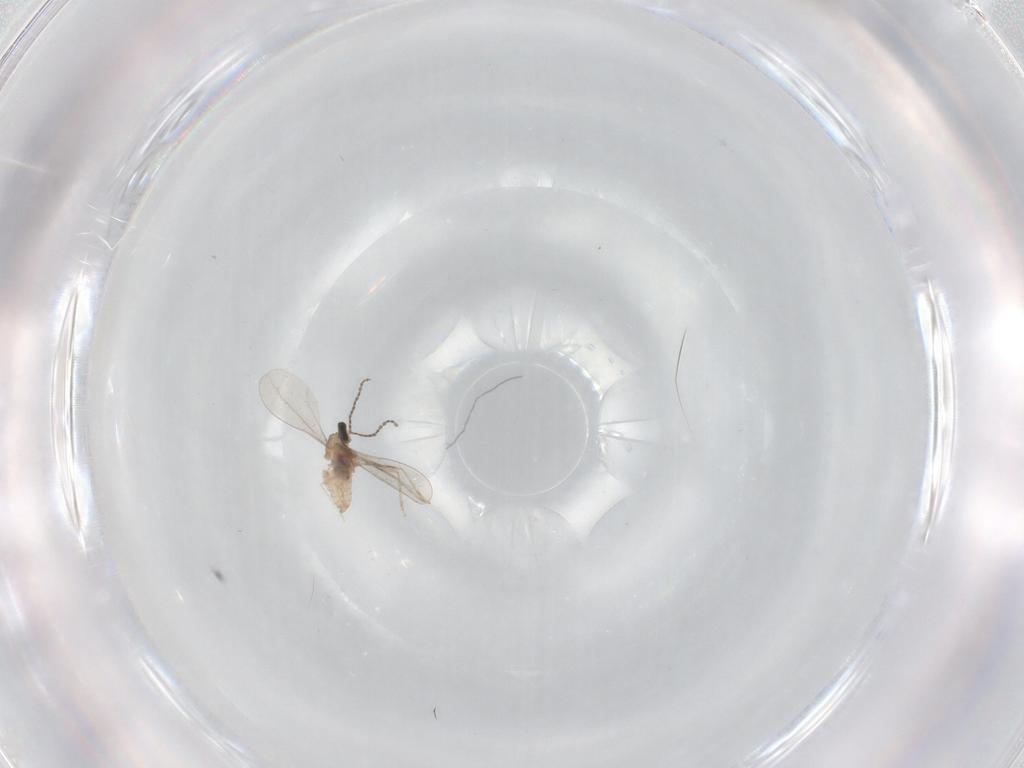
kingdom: Animalia
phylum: Arthropoda
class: Insecta
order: Diptera
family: Cecidomyiidae
